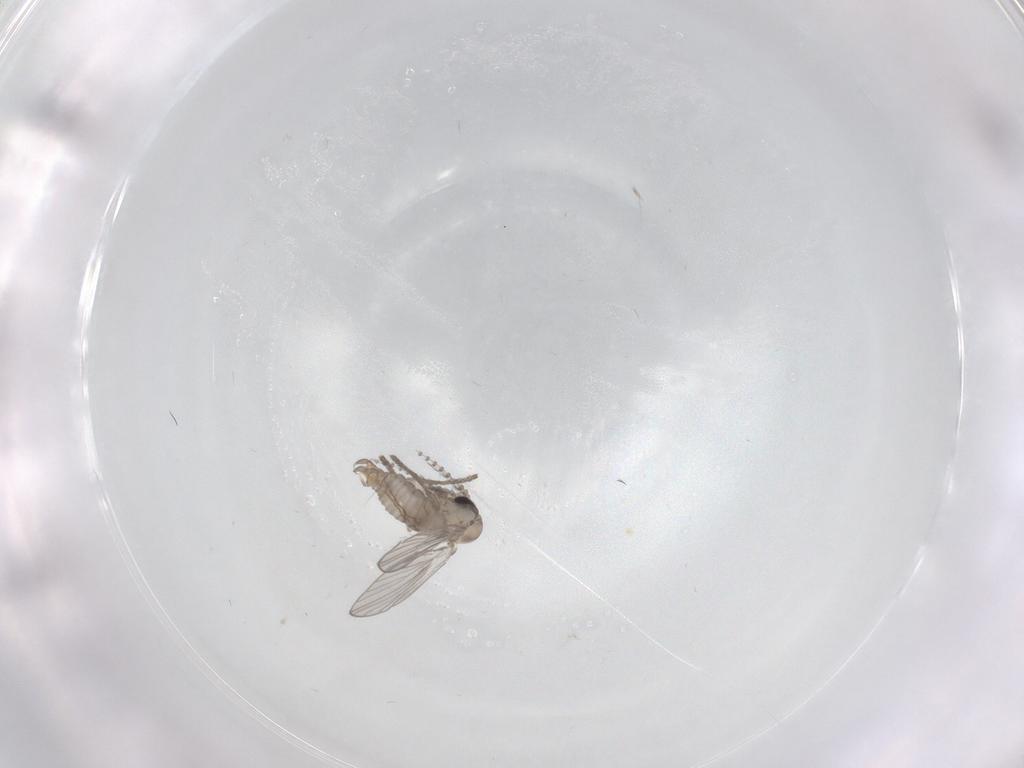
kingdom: Animalia
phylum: Arthropoda
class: Insecta
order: Diptera
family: Psychodidae
